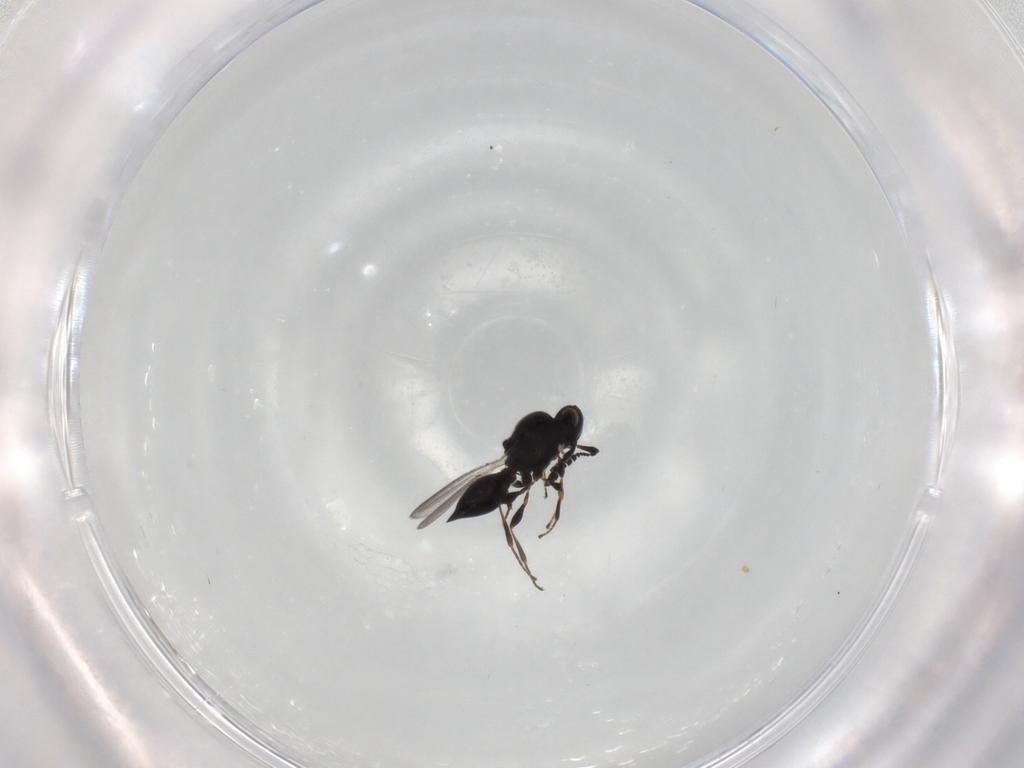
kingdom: Animalia
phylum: Arthropoda
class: Insecta
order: Hymenoptera
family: Platygastridae
